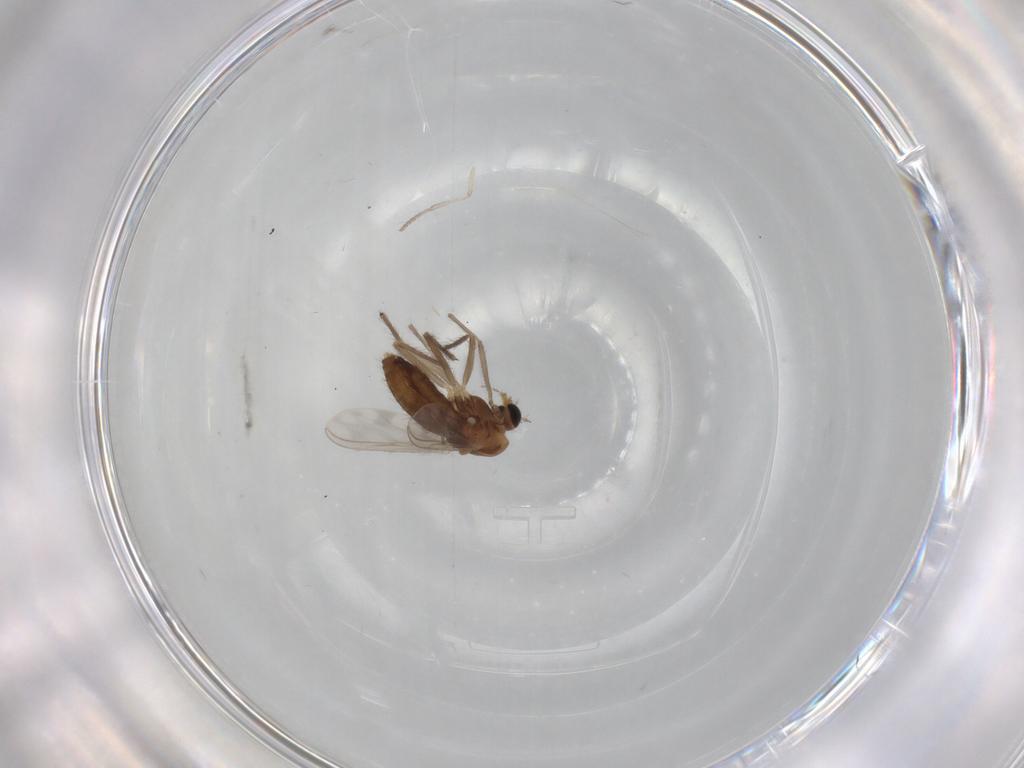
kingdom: Animalia
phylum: Arthropoda
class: Insecta
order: Diptera
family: Chironomidae
